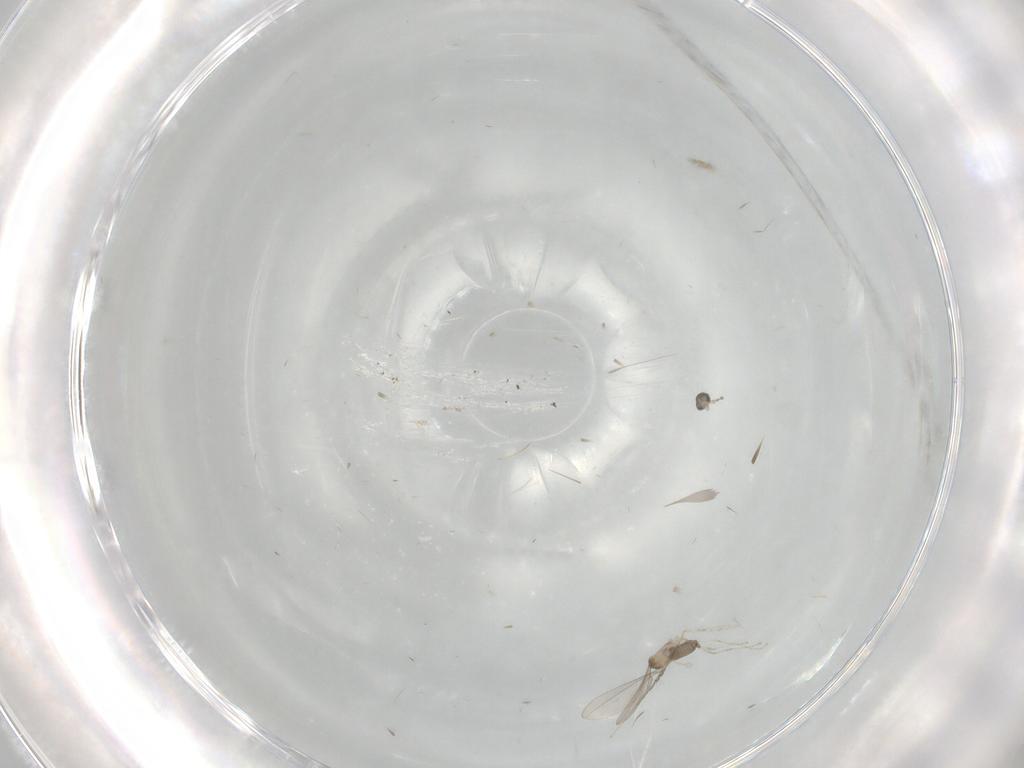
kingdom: Animalia
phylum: Arthropoda
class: Insecta
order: Diptera
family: Cecidomyiidae
